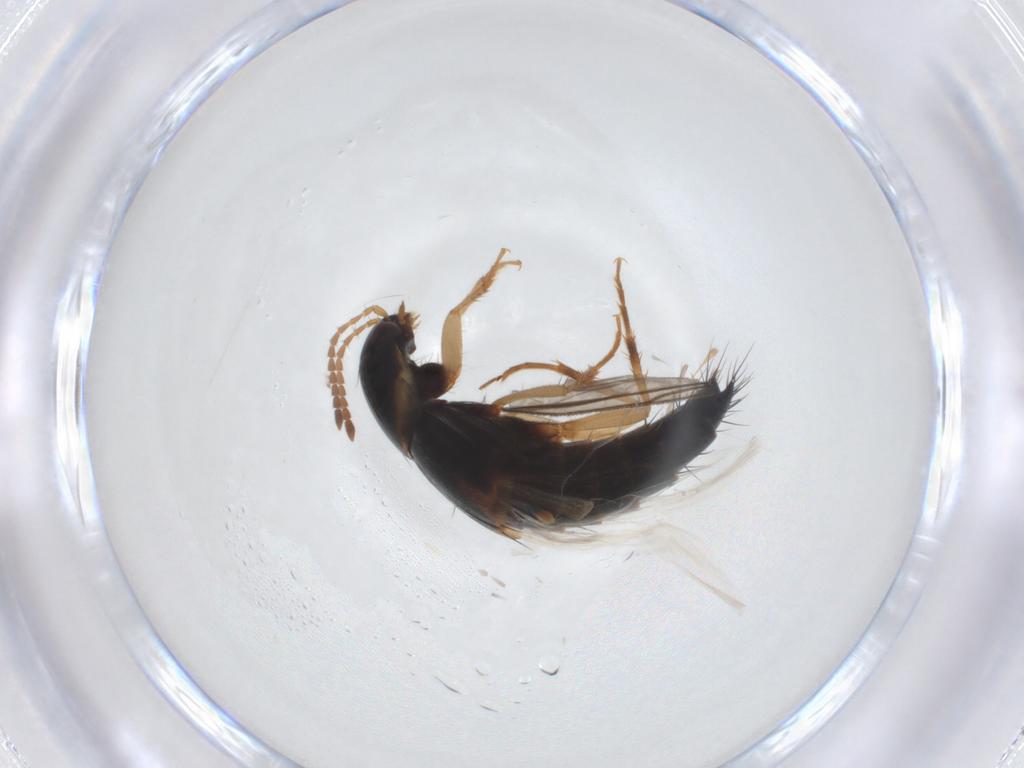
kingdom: Animalia
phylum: Arthropoda
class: Insecta
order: Coleoptera
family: Staphylinidae
